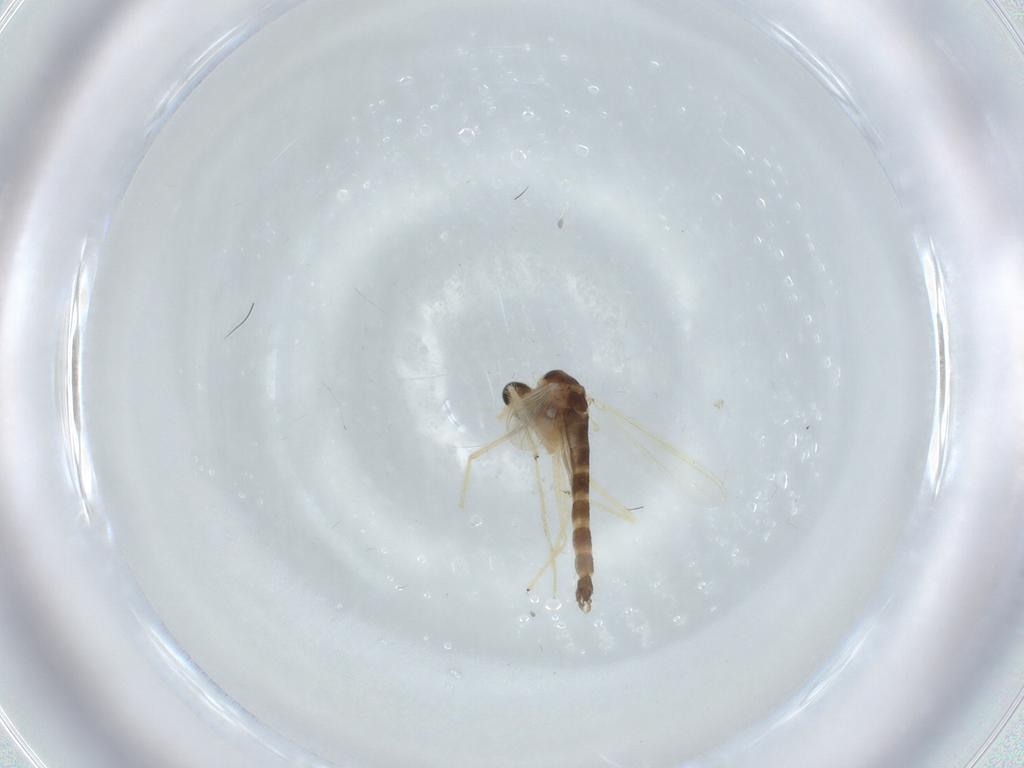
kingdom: Animalia
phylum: Arthropoda
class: Insecta
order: Diptera
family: Chironomidae
